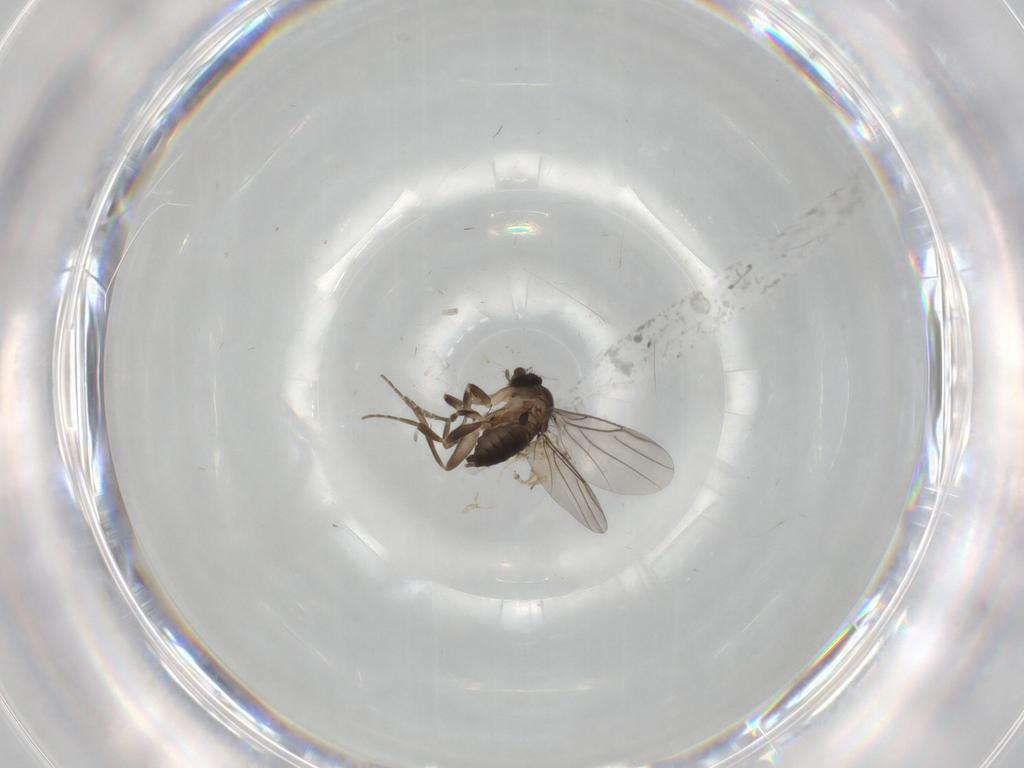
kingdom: Animalia
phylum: Arthropoda
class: Insecta
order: Diptera
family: Phoridae
